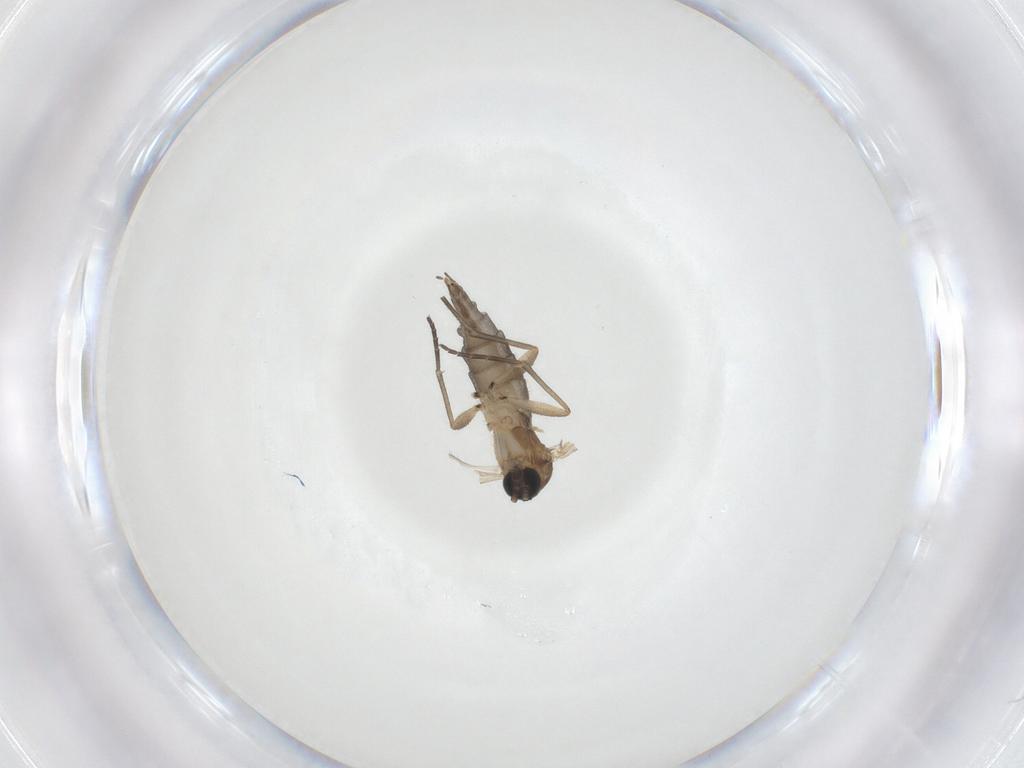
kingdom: Animalia
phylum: Arthropoda
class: Insecta
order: Diptera
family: Sciaridae
